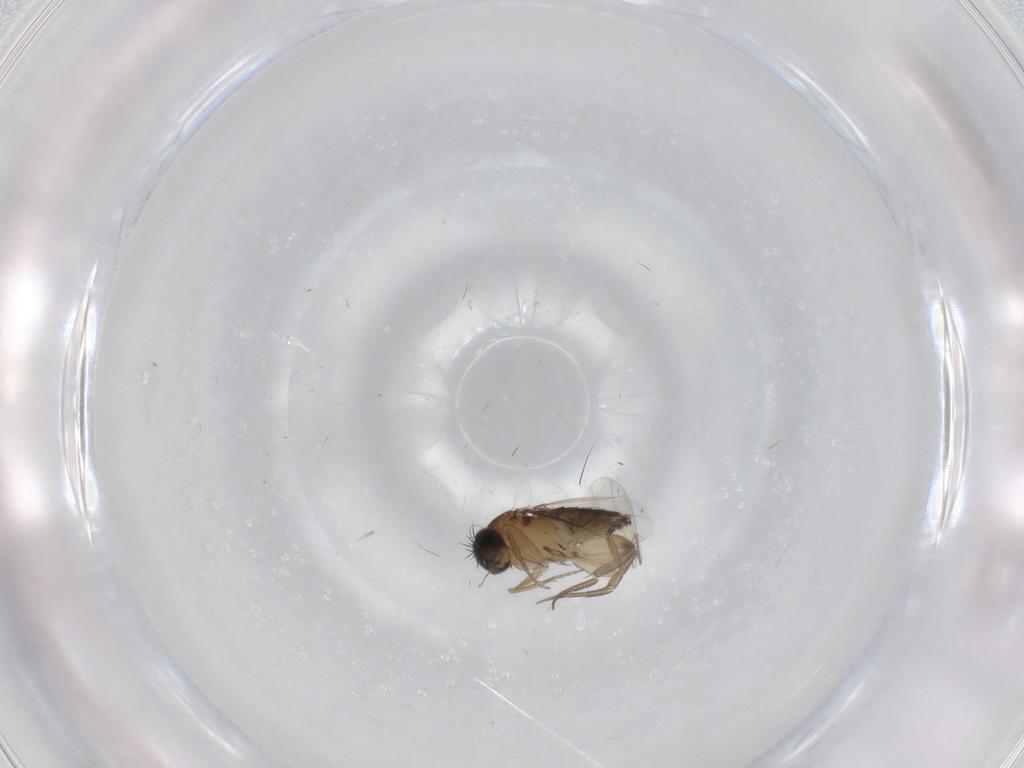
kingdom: Animalia
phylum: Arthropoda
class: Insecta
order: Diptera
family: Phoridae
